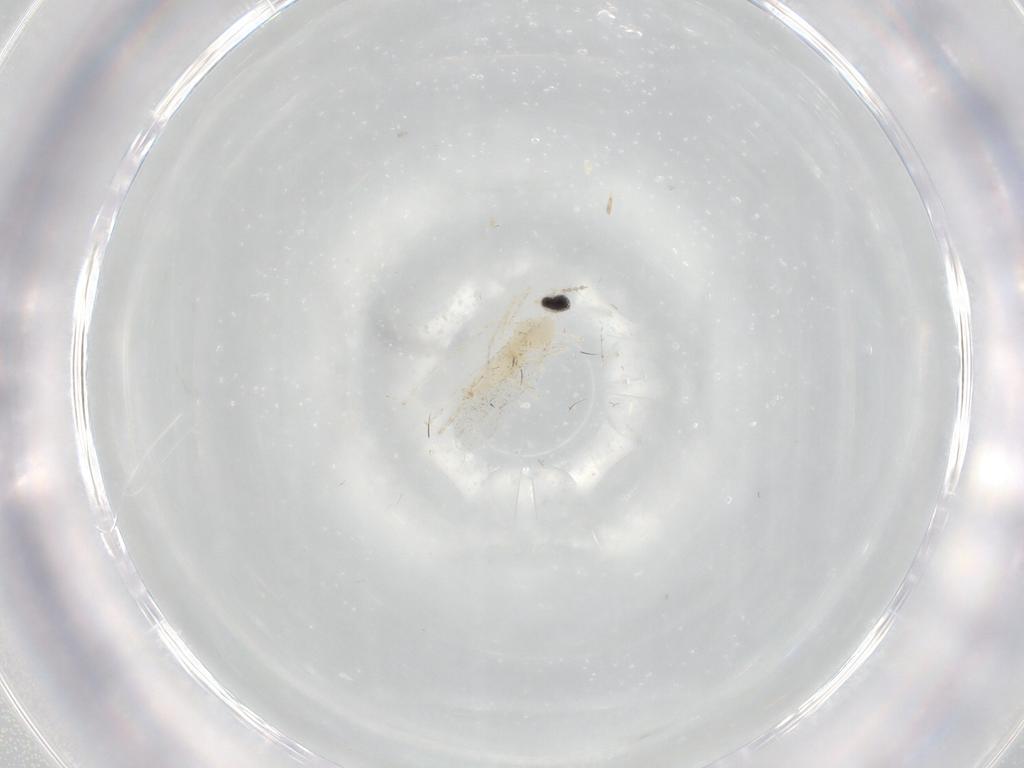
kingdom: Animalia
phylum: Arthropoda
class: Insecta
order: Diptera
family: Cecidomyiidae
